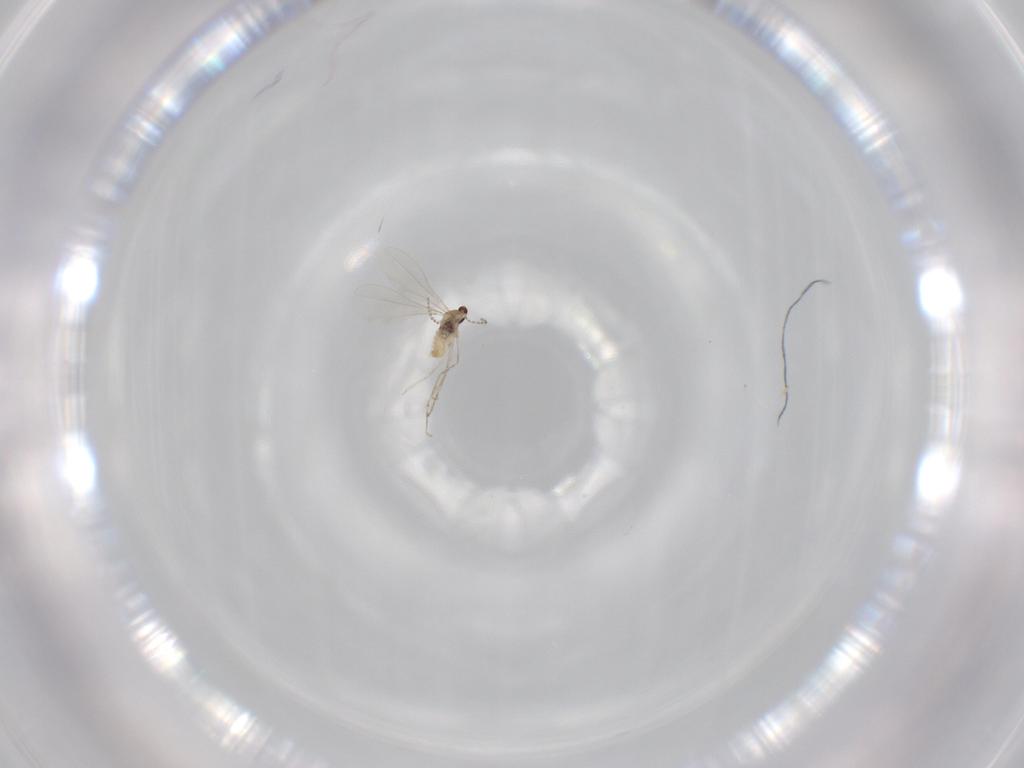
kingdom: Animalia
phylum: Arthropoda
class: Insecta
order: Diptera
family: Cecidomyiidae
